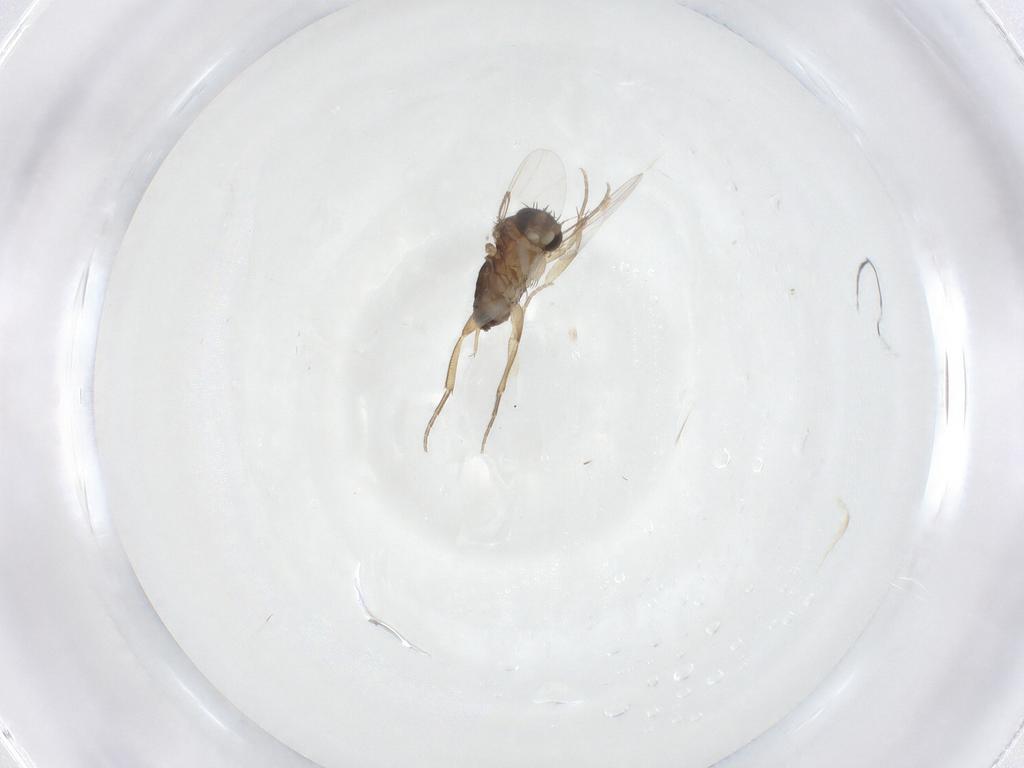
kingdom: Animalia
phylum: Arthropoda
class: Insecta
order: Diptera
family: Phoridae
